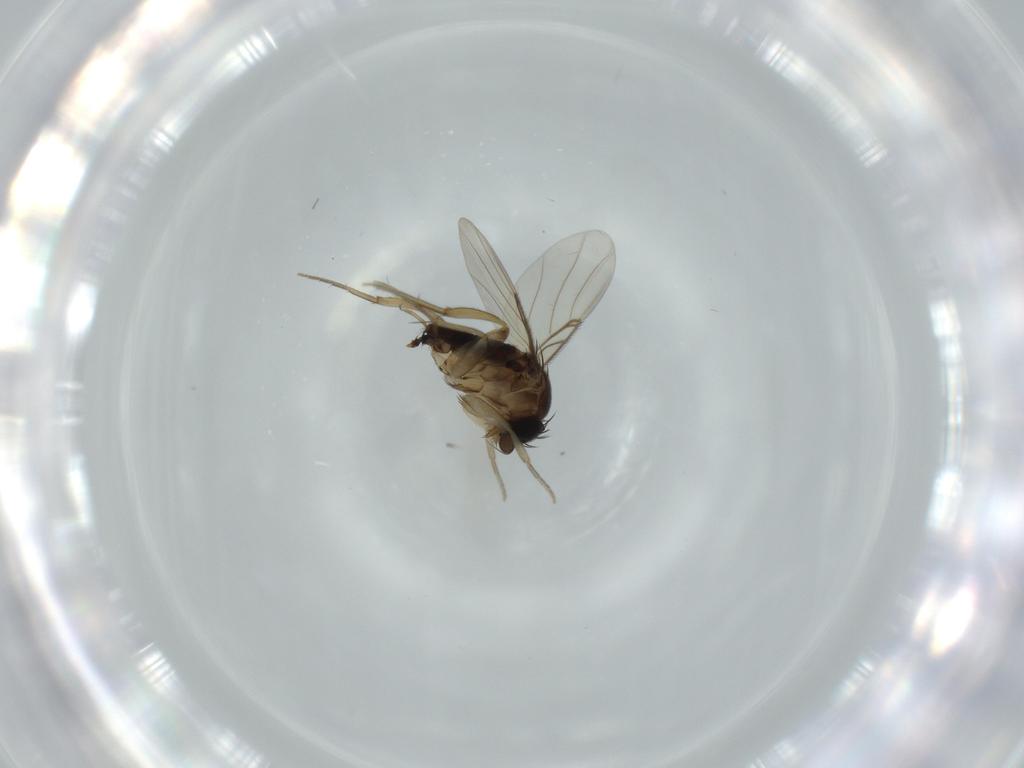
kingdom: Animalia
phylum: Arthropoda
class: Insecta
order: Diptera
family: Phoridae
